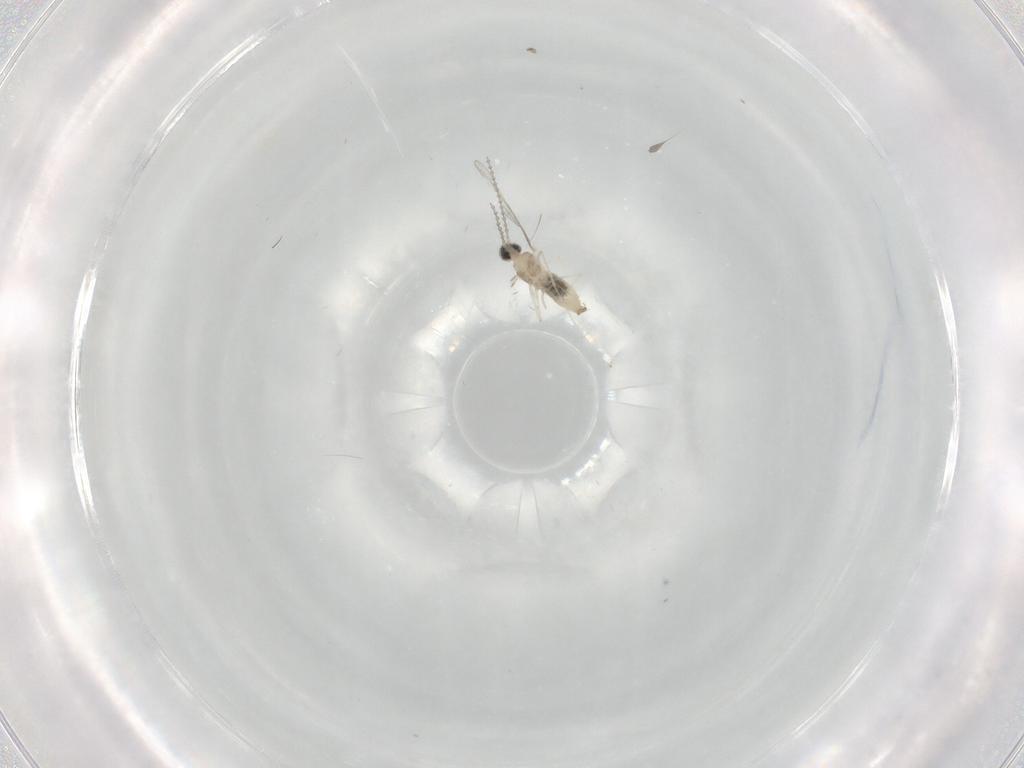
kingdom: Animalia
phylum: Arthropoda
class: Insecta
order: Diptera
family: Cecidomyiidae
